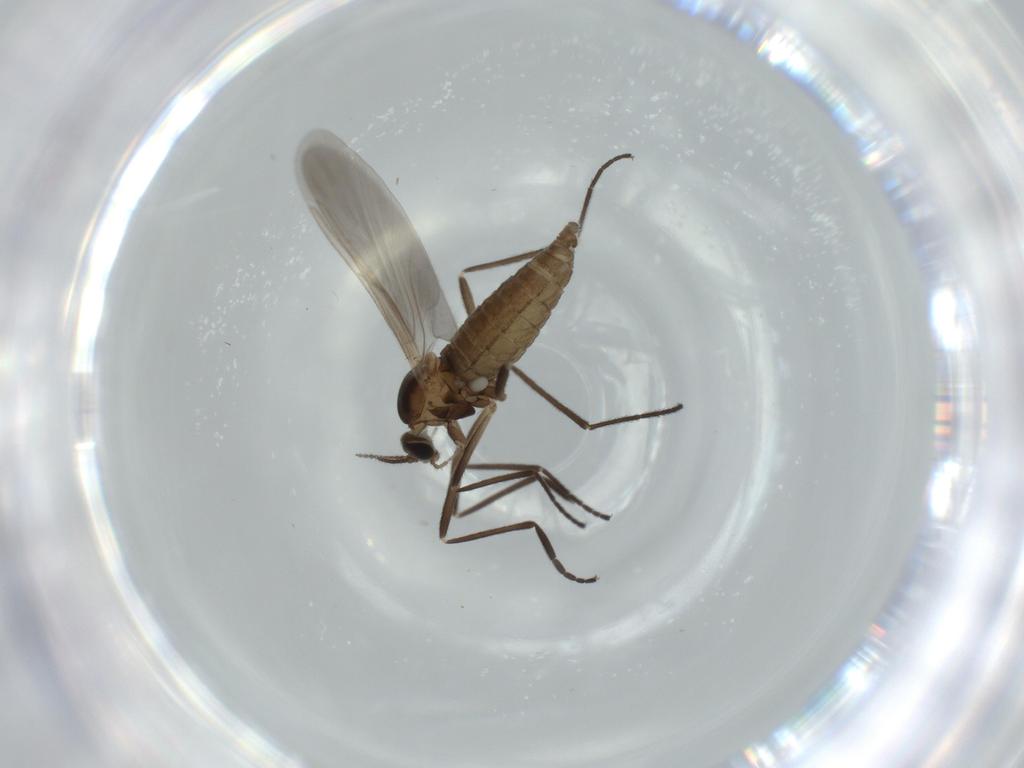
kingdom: Animalia
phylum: Arthropoda
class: Insecta
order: Diptera
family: Cecidomyiidae
